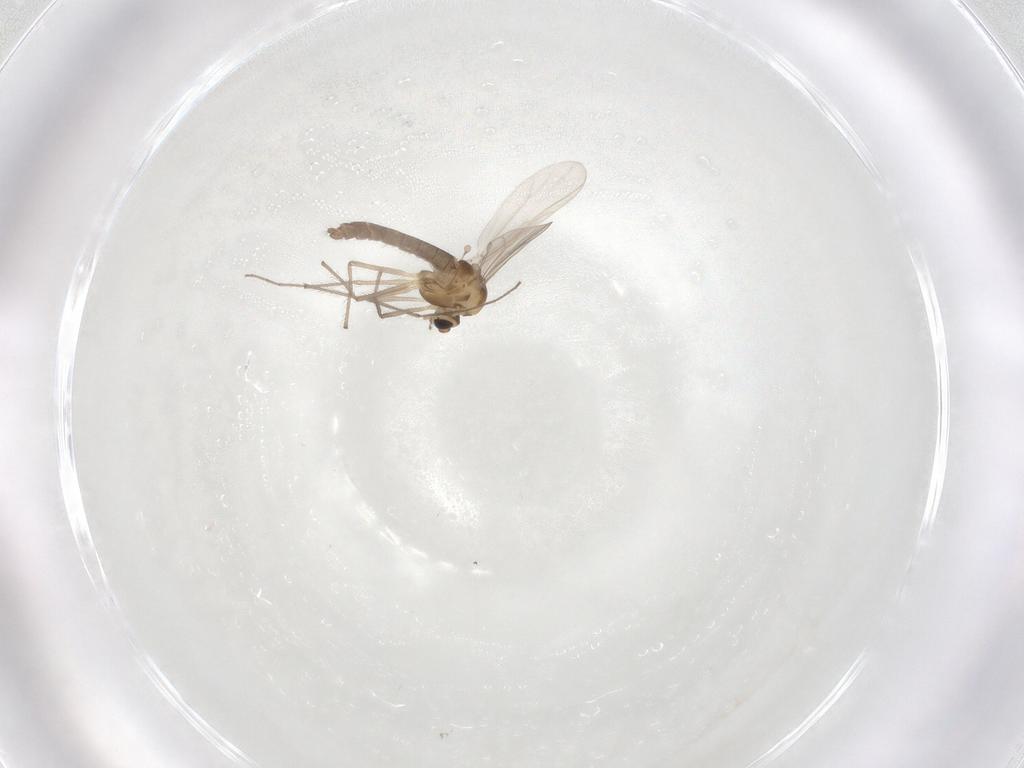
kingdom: Animalia
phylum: Arthropoda
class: Insecta
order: Diptera
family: Chironomidae
